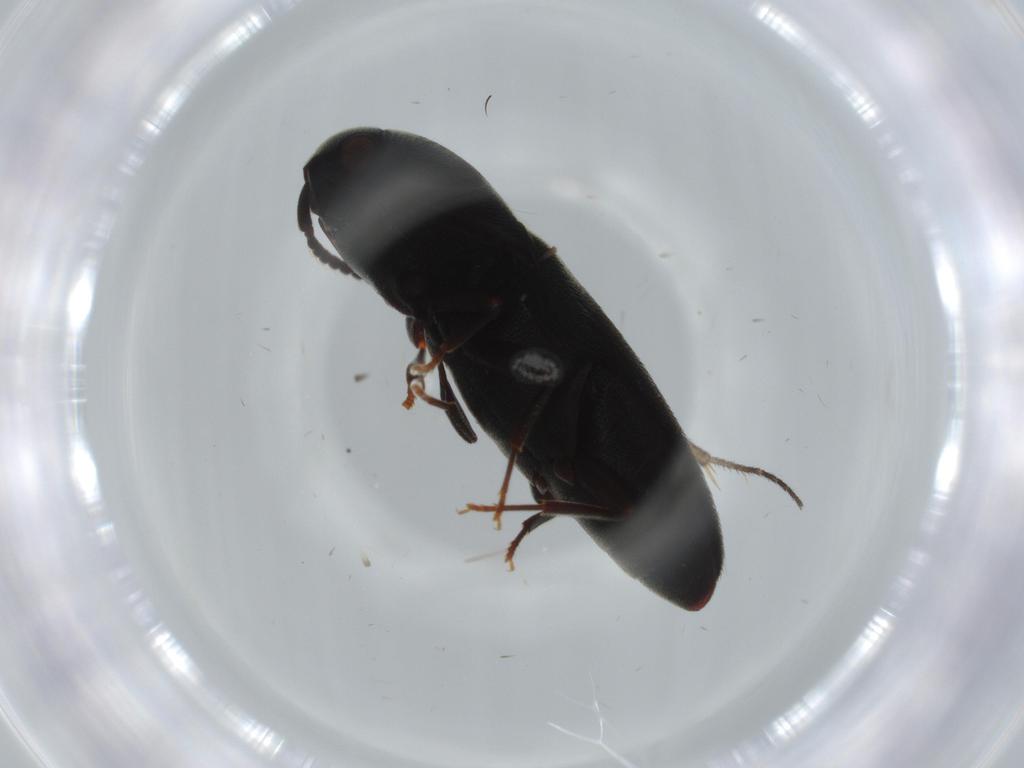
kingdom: Animalia
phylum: Arthropoda
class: Insecta
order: Coleoptera
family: Eucnemidae
